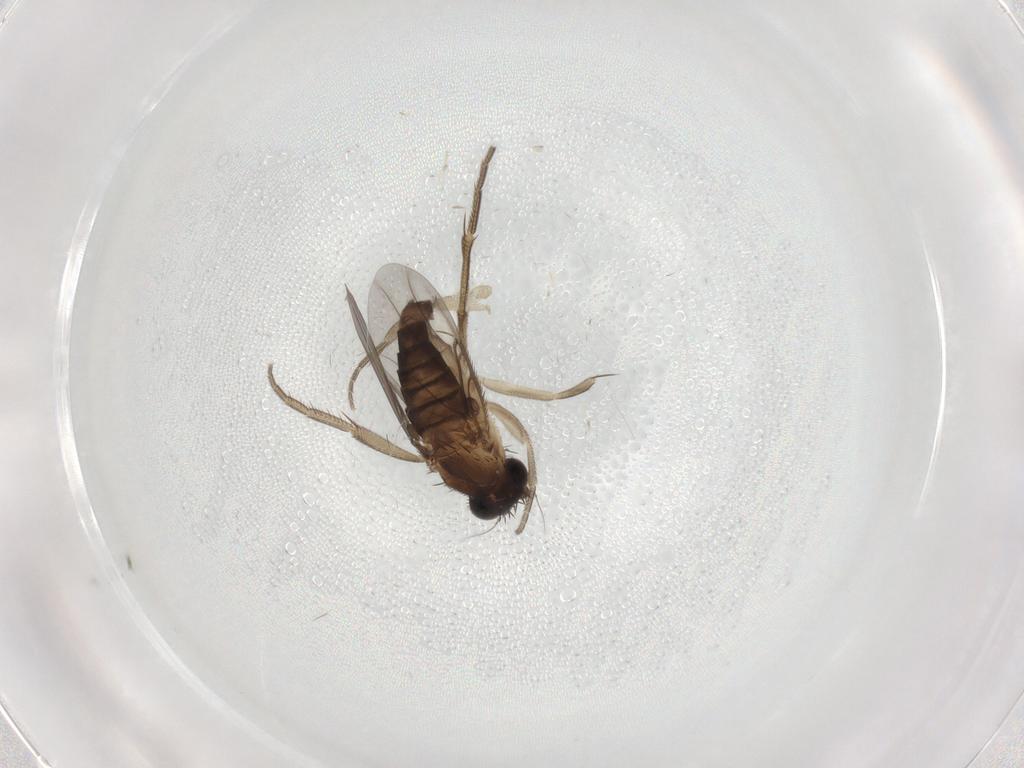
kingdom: Animalia
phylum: Arthropoda
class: Insecta
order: Diptera
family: Phoridae
